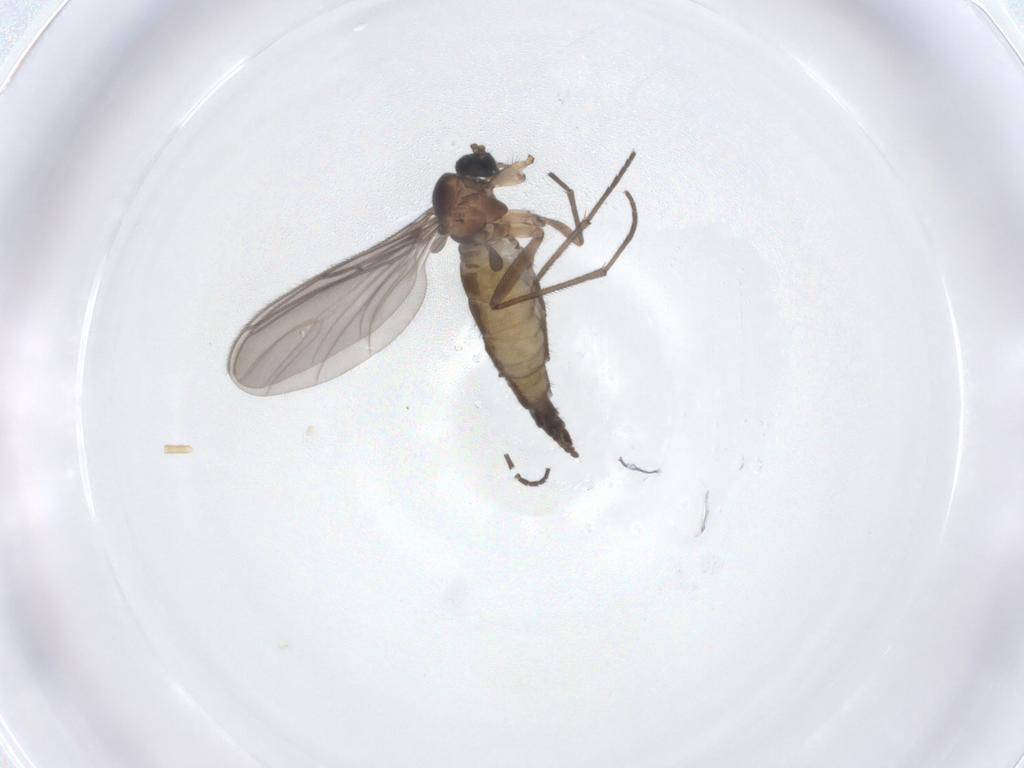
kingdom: Animalia
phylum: Arthropoda
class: Insecta
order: Diptera
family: Sciaridae
